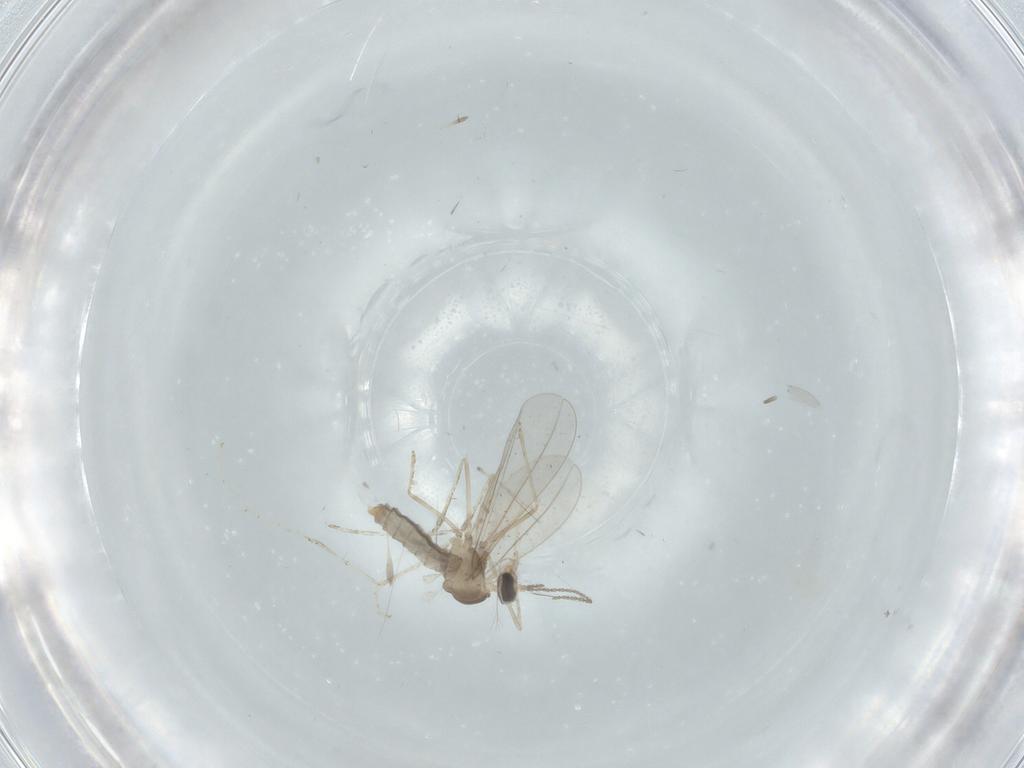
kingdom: Animalia
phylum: Arthropoda
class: Insecta
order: Diptera
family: Cecidomyiidae
